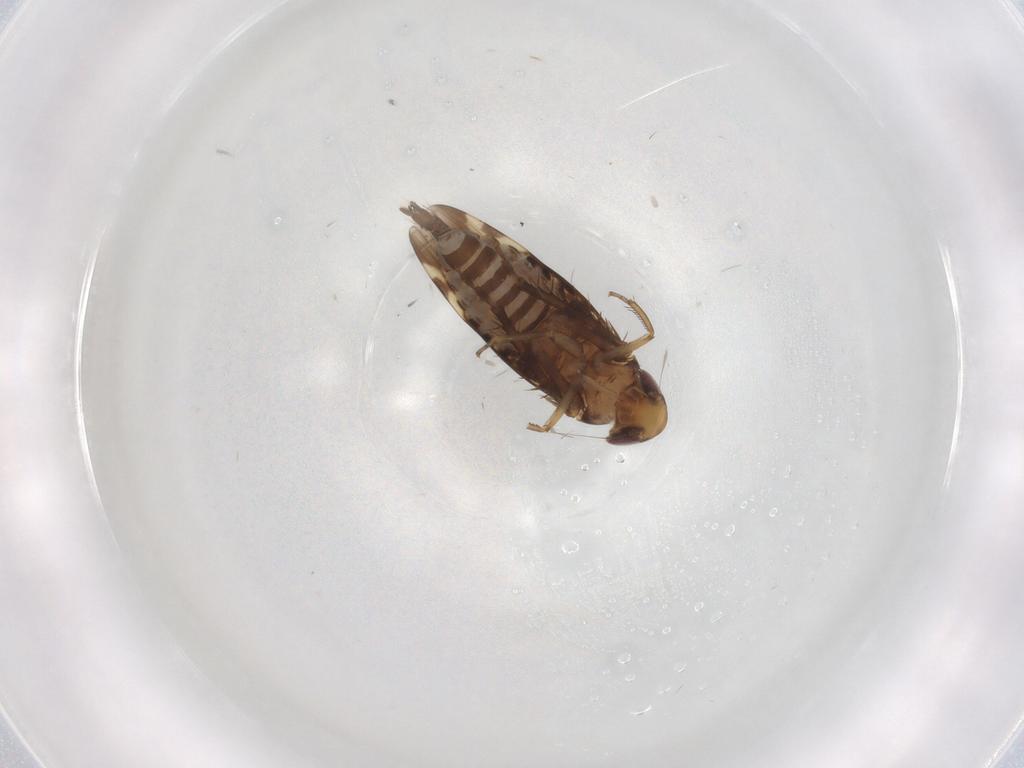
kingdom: Animalia
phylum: Arthropoda
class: Insecta
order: Hemiptera
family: Cicadellidae
